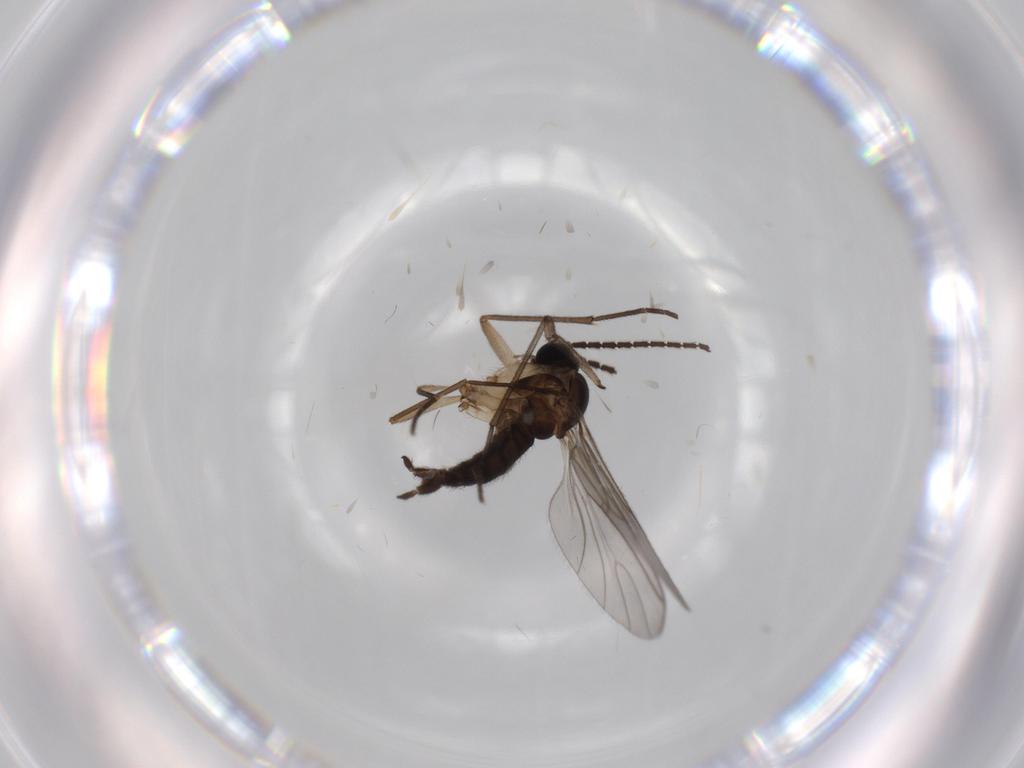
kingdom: Animalia
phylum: Arthropoda
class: Insecta
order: Diptera
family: Sciaridae
